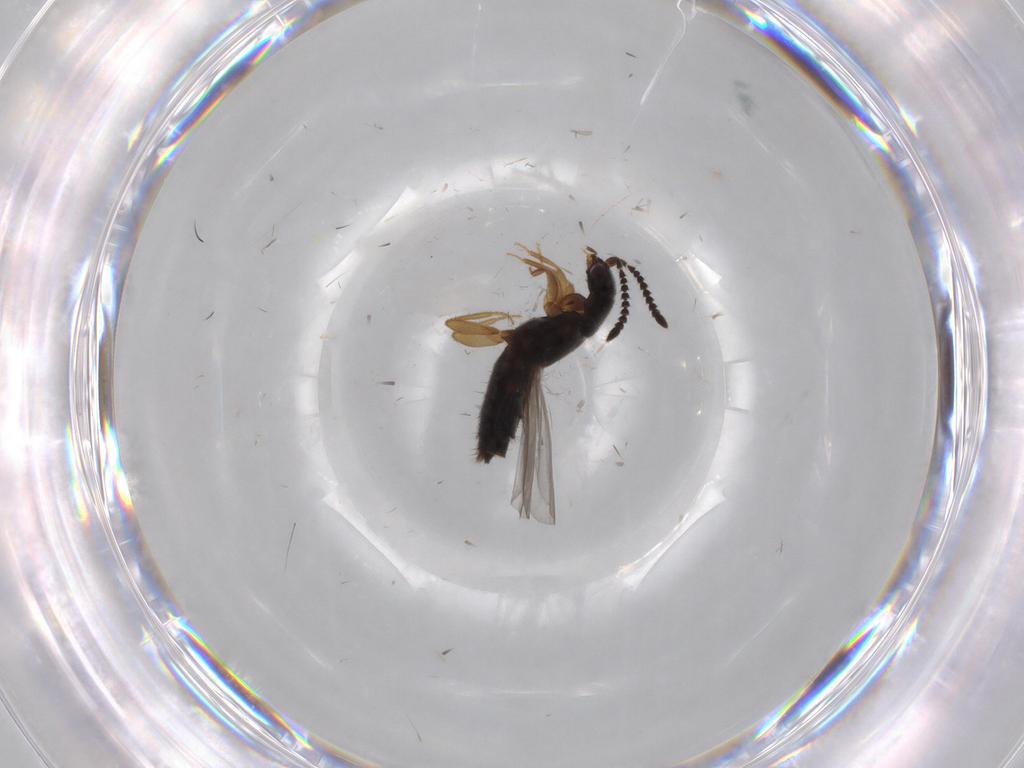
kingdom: Animalia
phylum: Arthropoda
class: Insecta
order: Coleoptera
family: Staphylinidae
